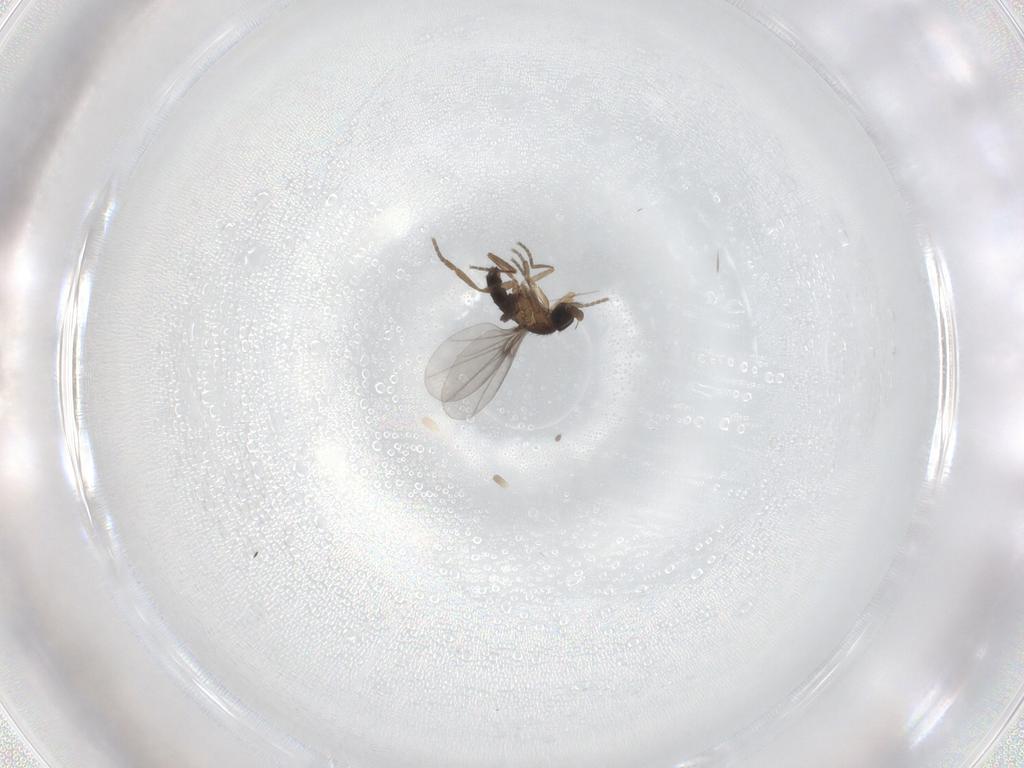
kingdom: Animalia
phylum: Arthropoda
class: Insecta
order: Diptera
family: Phoridae
